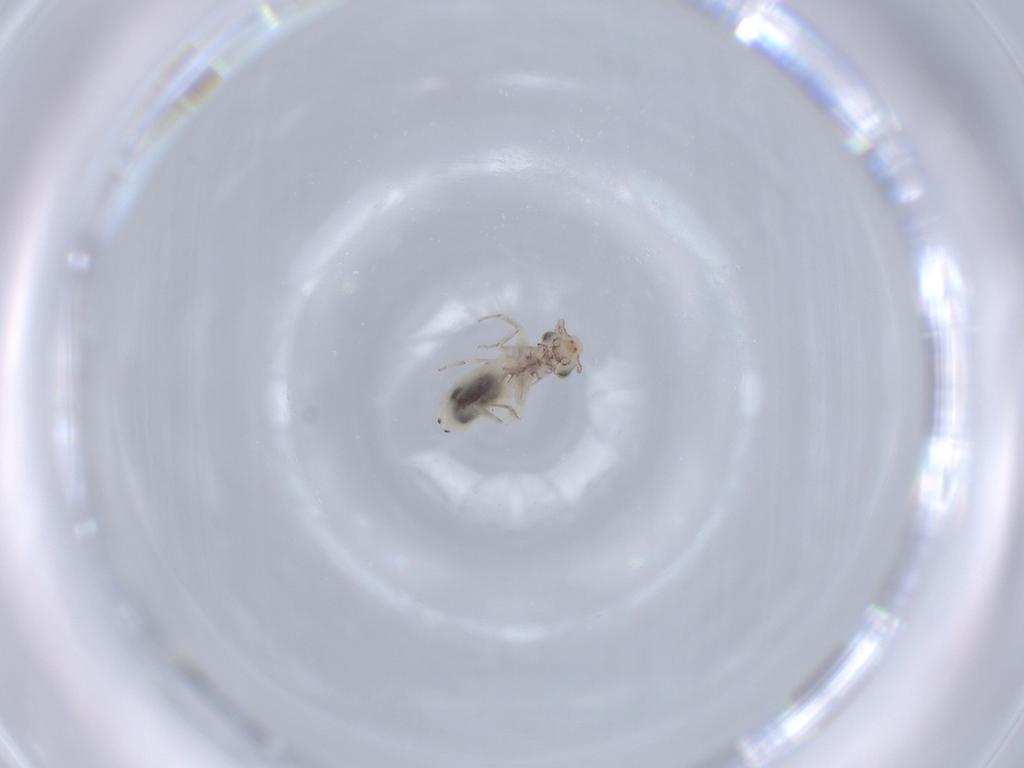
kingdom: Animalia
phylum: Arthropoda
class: Insecta
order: Psocodea
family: Lepidopsocidae
